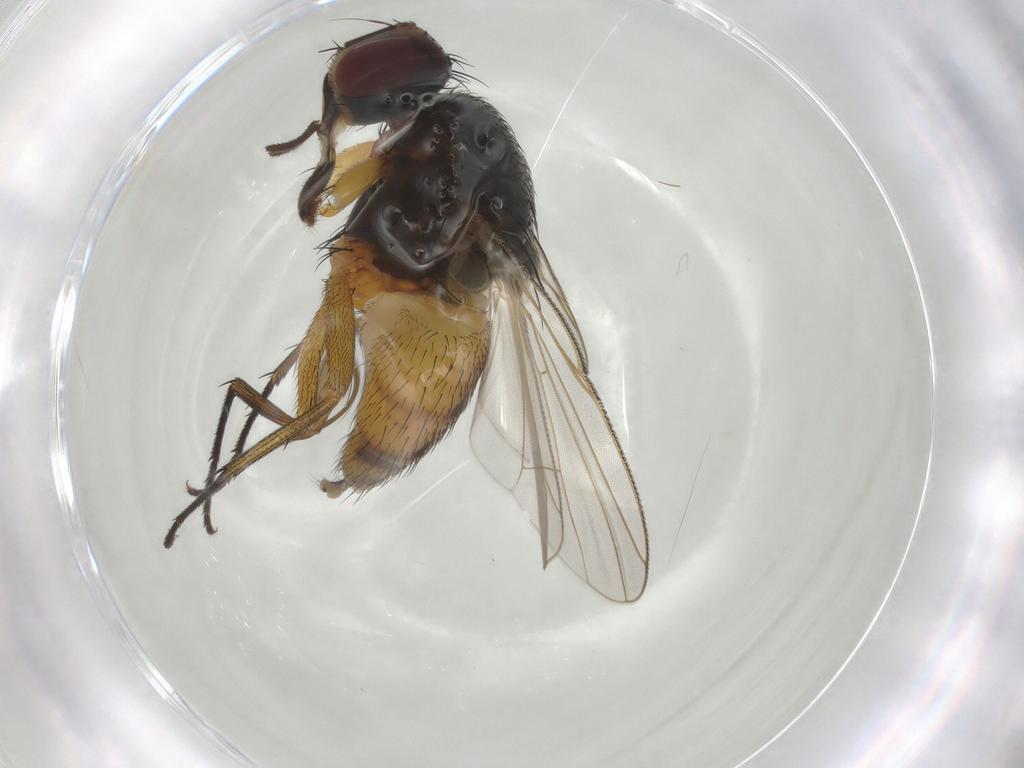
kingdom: Animalia
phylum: Arthropoda
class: Insecta
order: Diptera
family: Muscidae
